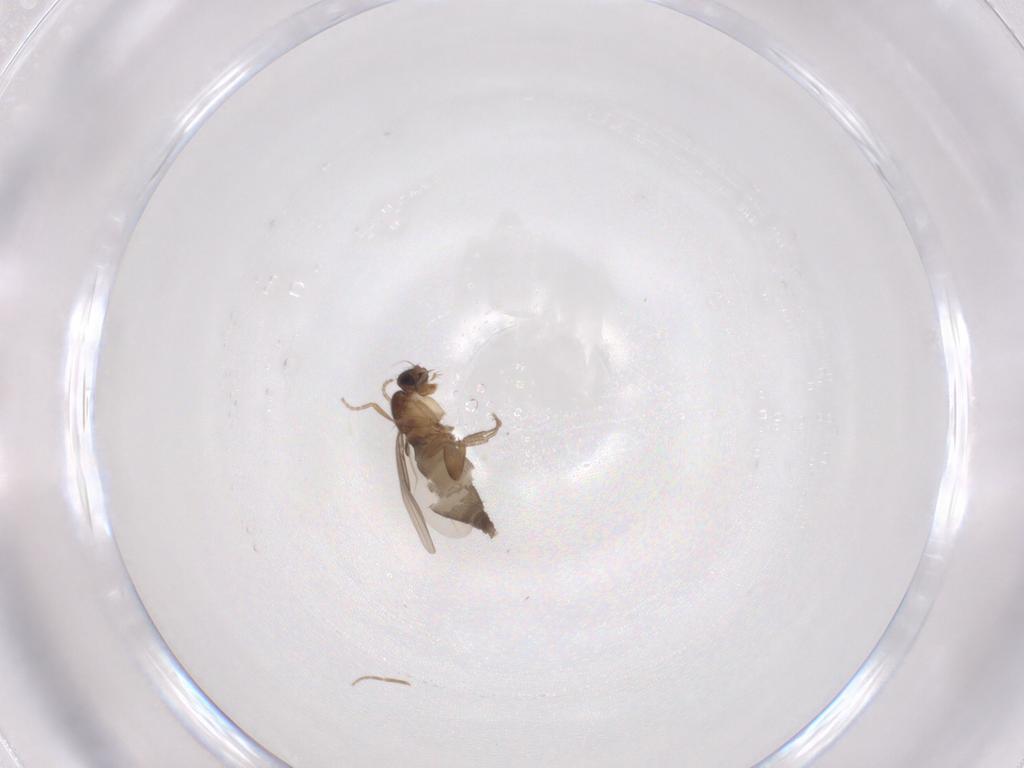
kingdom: Animalia
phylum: Arthropoda
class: Insecta
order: Diptera
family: Phoridae
